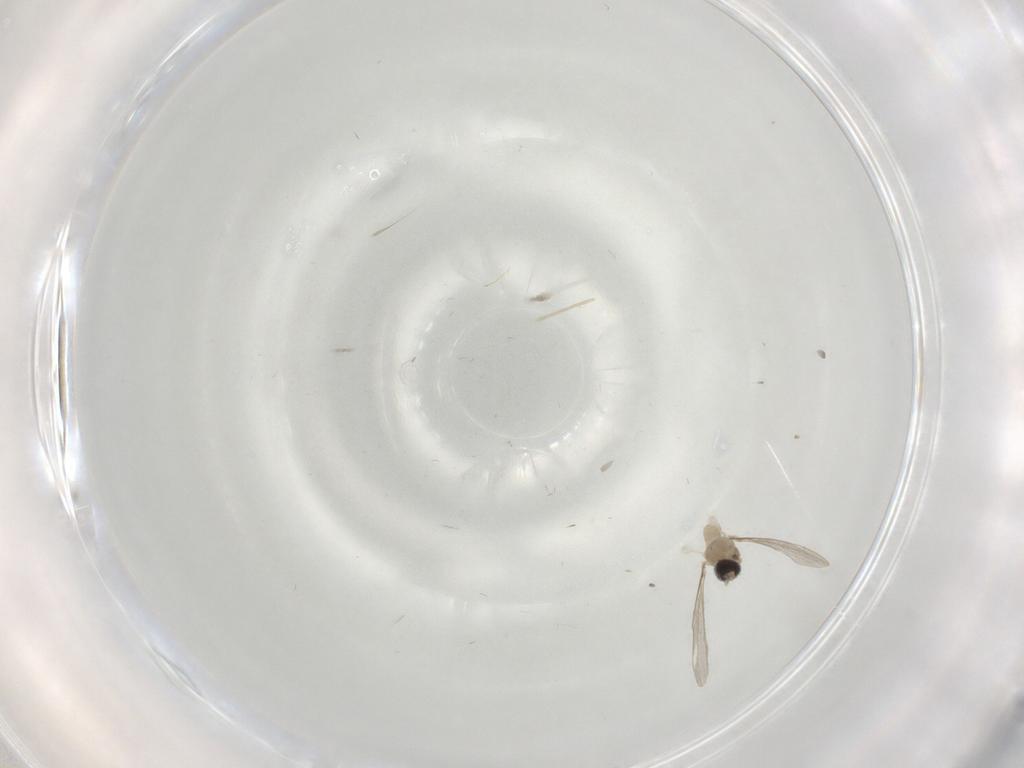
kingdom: Animalia
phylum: Arthropoda
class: Insecta
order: Diptera
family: Cecidomyiidae
